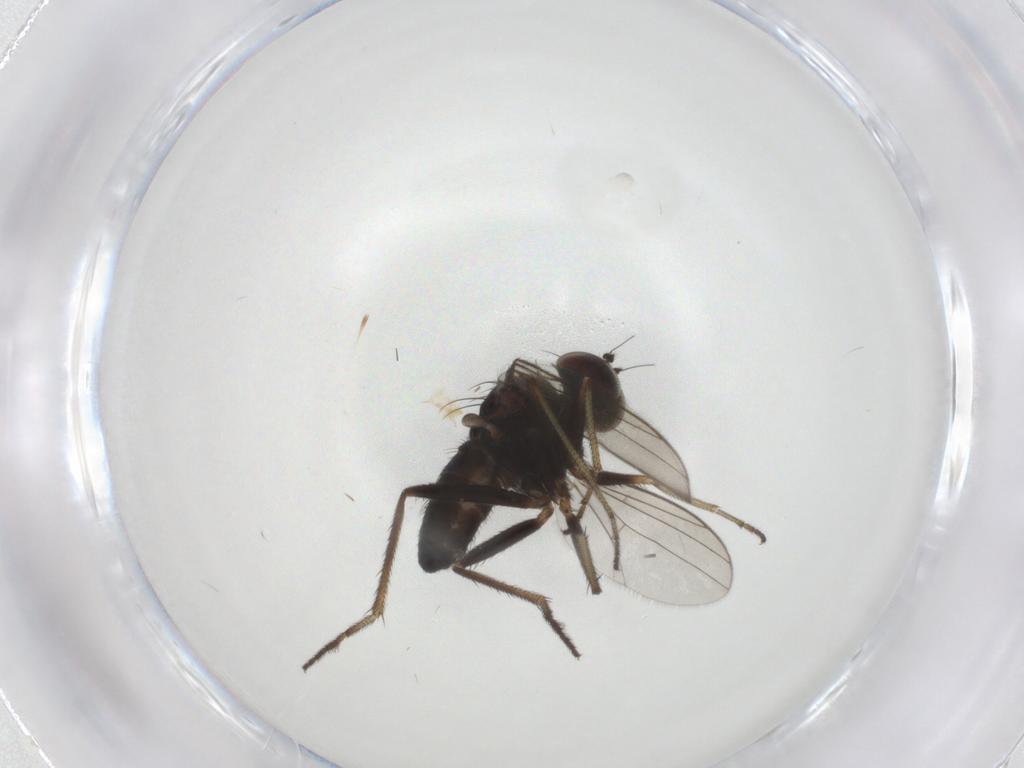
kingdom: Animalia
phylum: Arthropoda
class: Insecta
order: Diptera
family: Dolichopodidae
